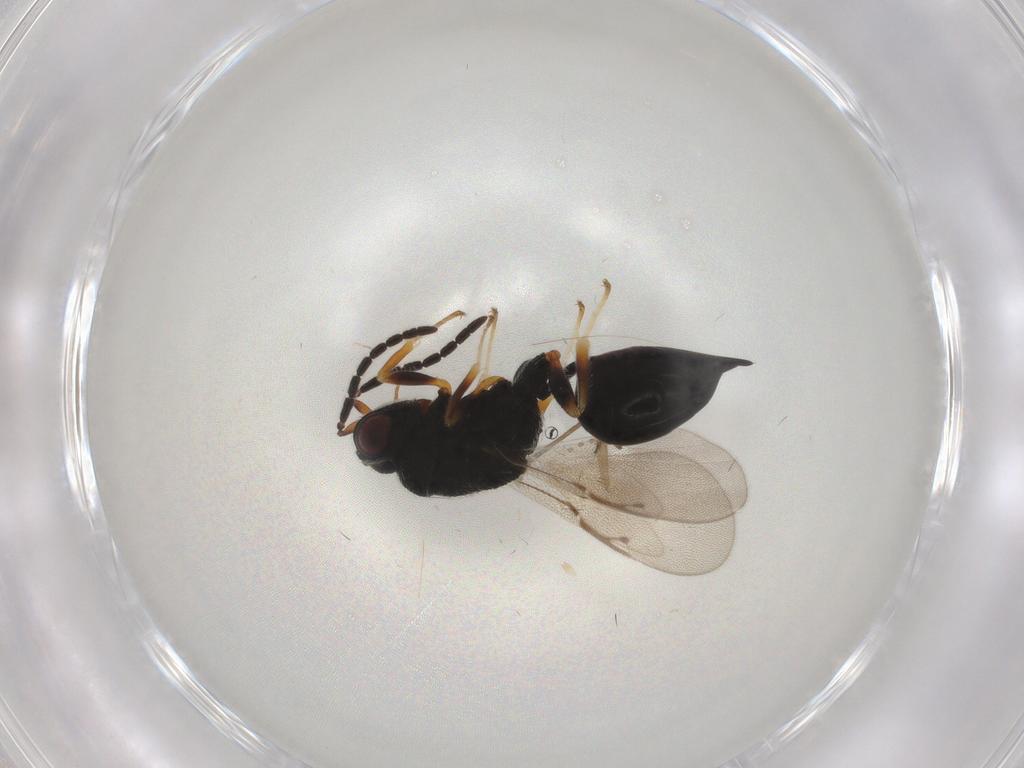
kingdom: Animalia
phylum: Arthropoda
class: Insecta
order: Hymenoptera
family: Eurytomidae
